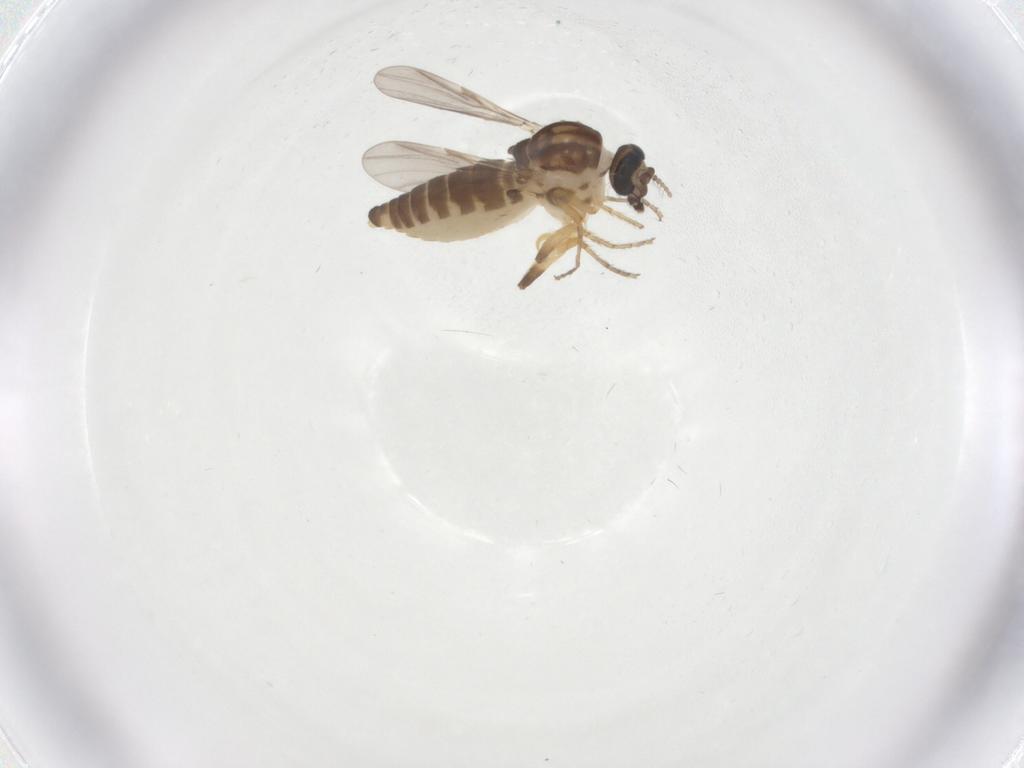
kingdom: Animalia
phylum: Arthropoda
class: Insecta
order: Diptera
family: Ceratopogonidae
